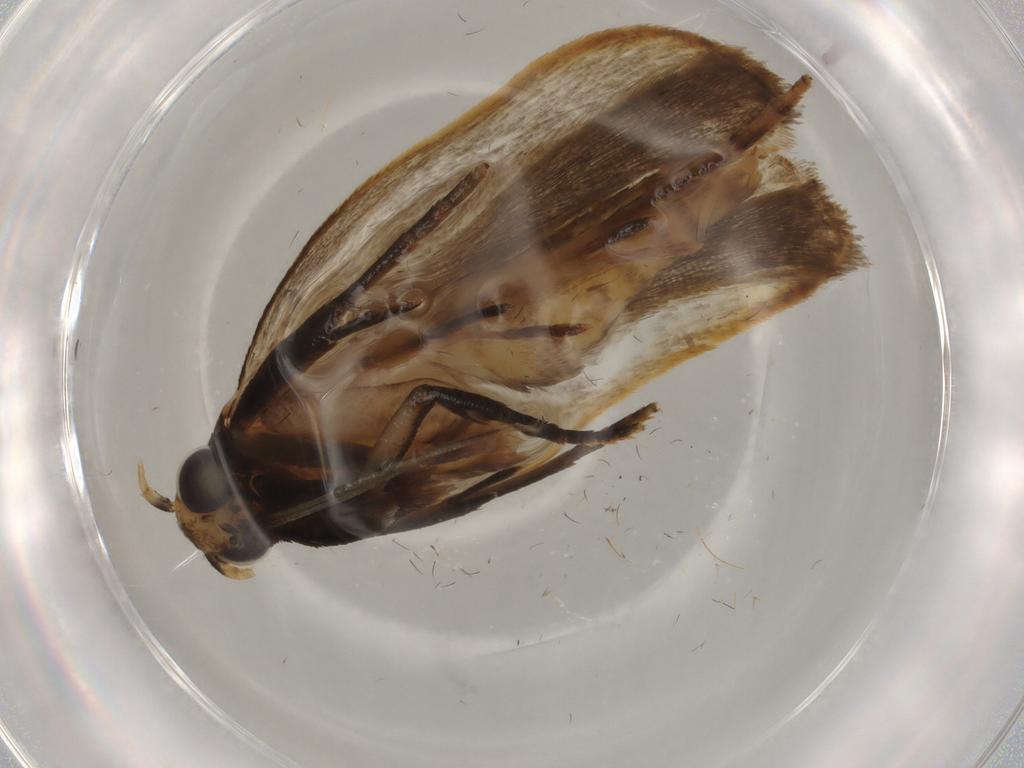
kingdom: Animalia
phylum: Arthropoda
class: Insecta
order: Lepidoptera
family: Gelechiidae
